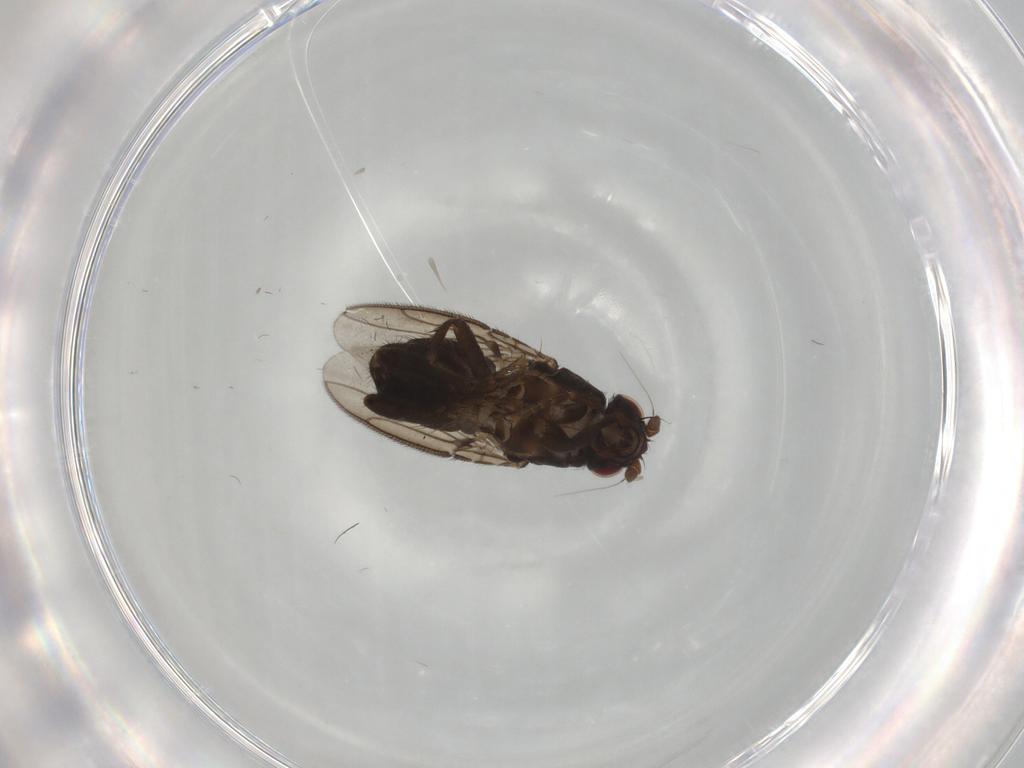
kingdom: Animalia
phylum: Arthropoda
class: Insecta
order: Diptera
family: Sphaeroceridae
